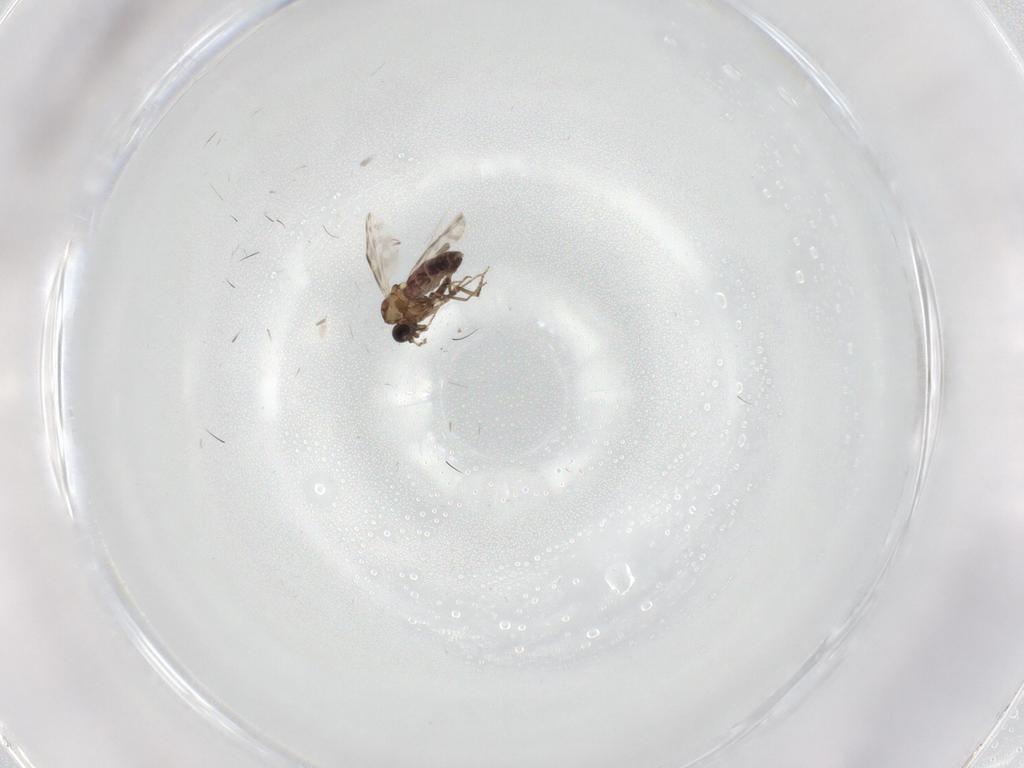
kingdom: Animalia
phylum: Arthropoda
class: Insecta
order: Diptera
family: Ceratopogonidae
